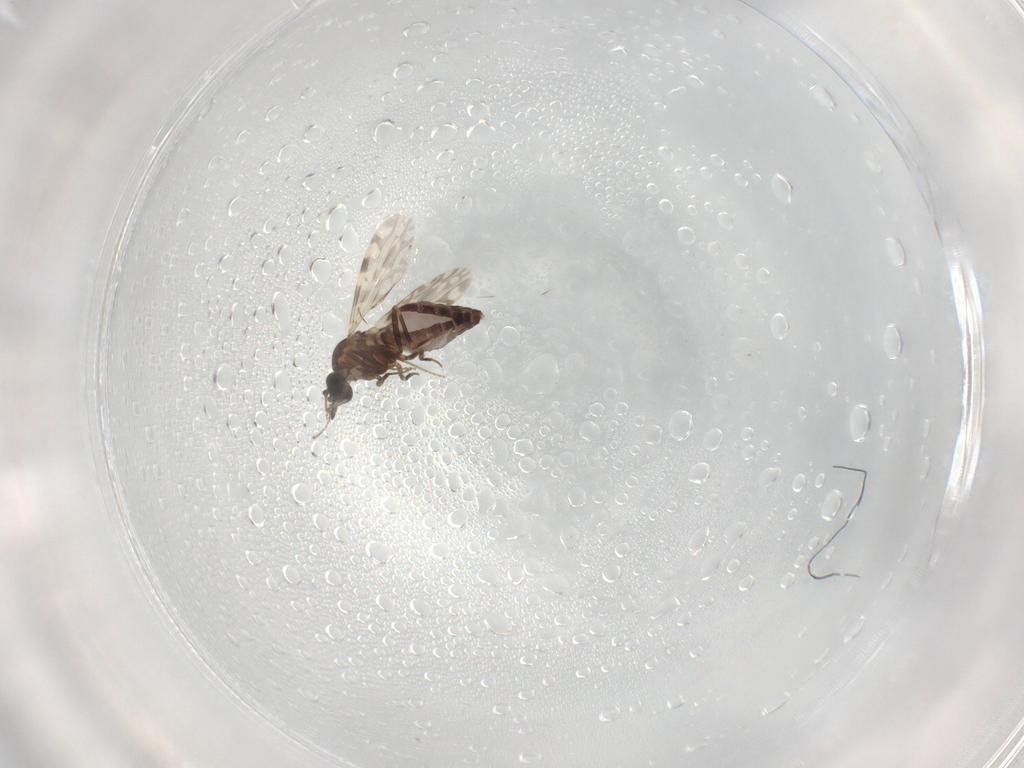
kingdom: Animalia
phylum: Arthropoda
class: Insecta
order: Diptera
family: Ceratopogonidae
